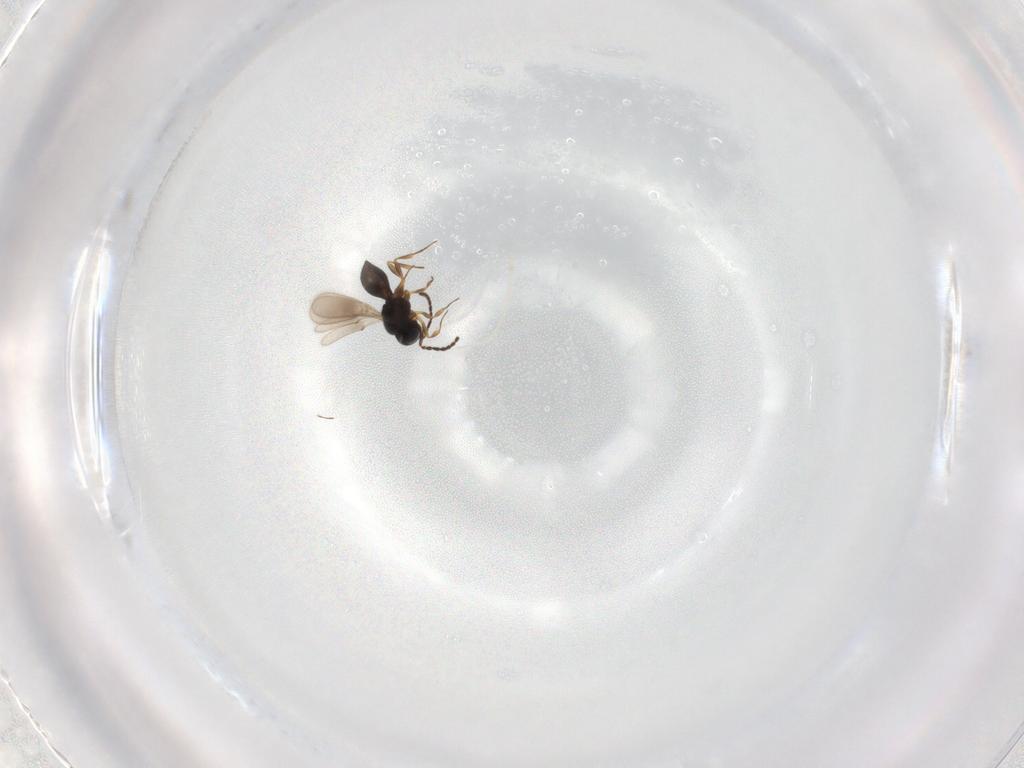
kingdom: Animalia
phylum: Arthropoda
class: Insecta
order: Hymenoptera
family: Scelionidae
